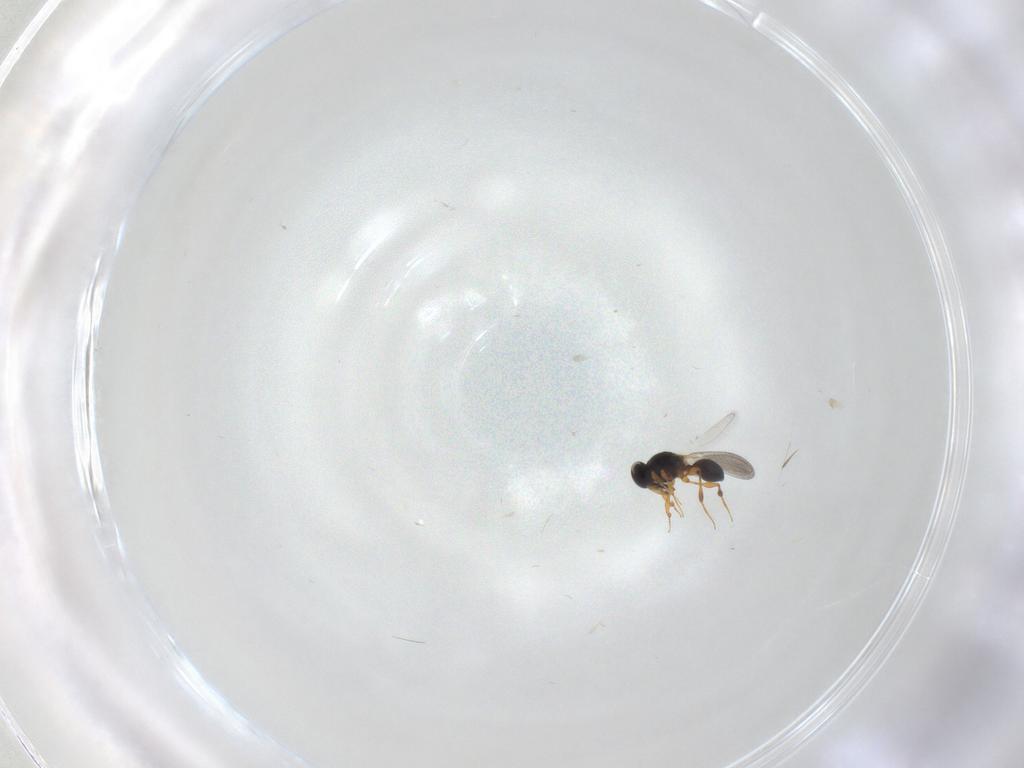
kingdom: Animalia
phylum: Arthropoda
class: Insecta
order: Hymenoptera
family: Platygastridae
